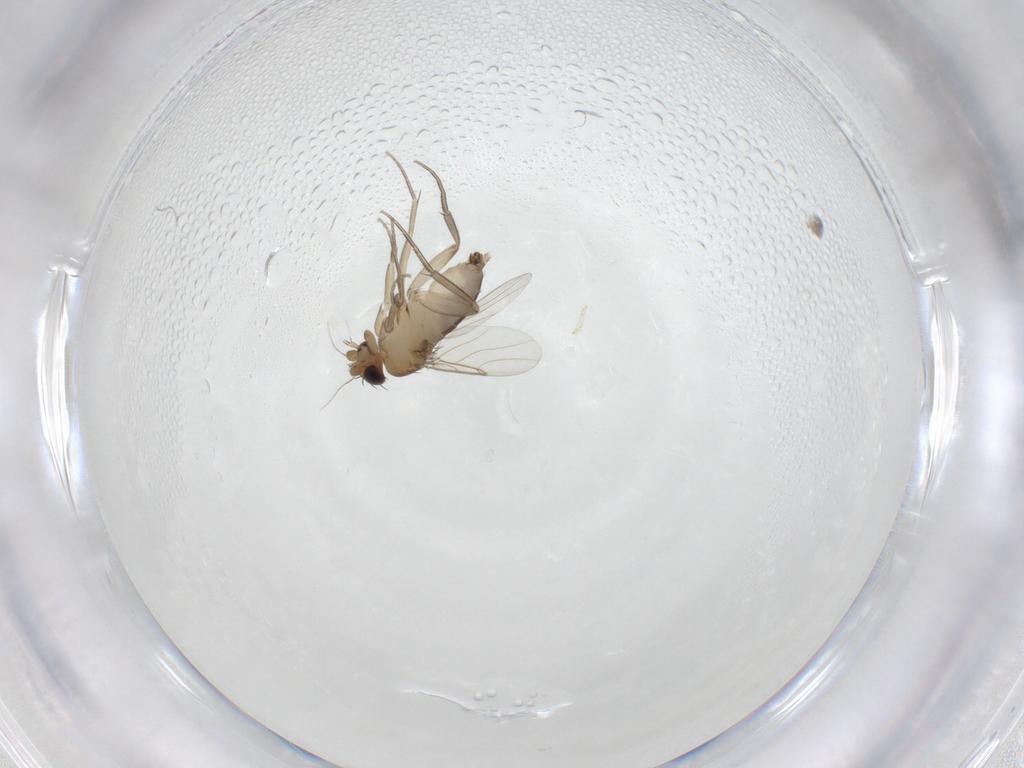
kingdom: Animalia
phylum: Arthropoda
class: Insecta
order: Diptera
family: Phoridae
